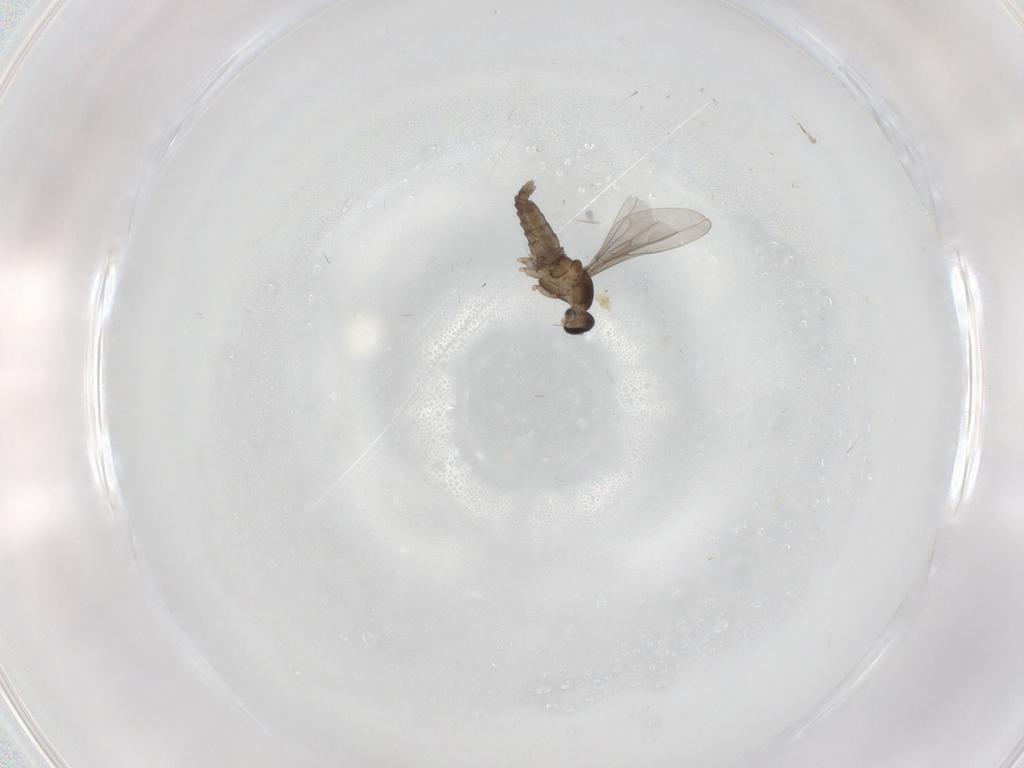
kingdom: Animalia
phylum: Arthropoda
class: Insecta
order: Diptera
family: Cecidomyiidae
